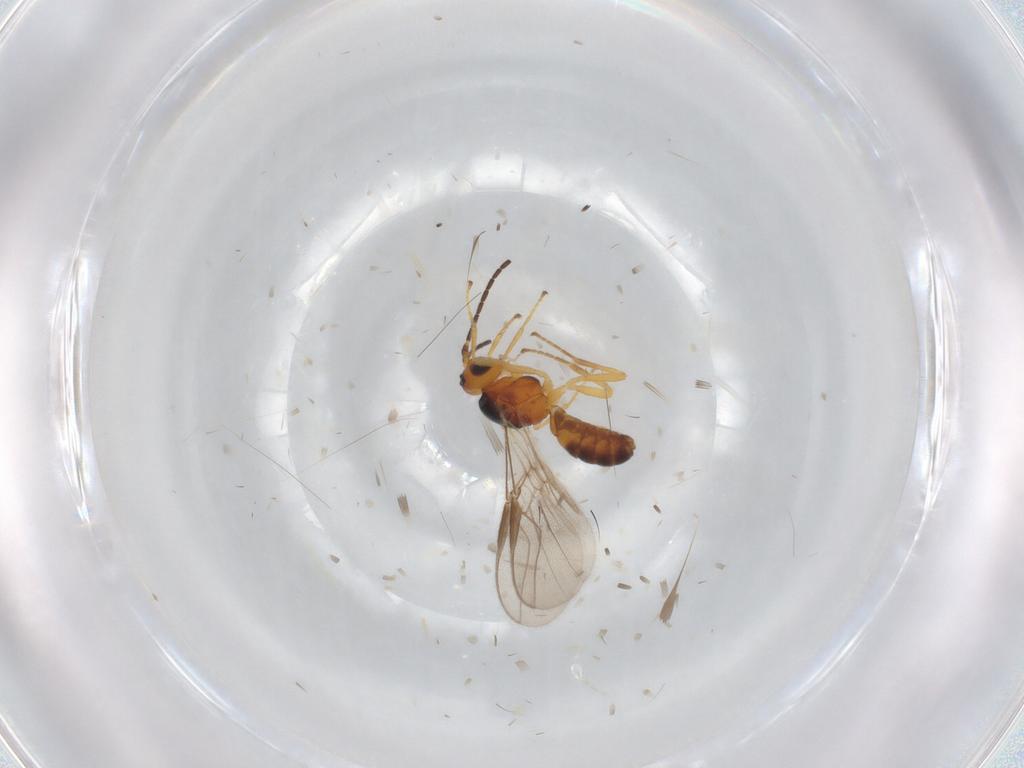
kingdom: Animalia
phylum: Arthropoda
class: Insecta
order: Hymenoptera
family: Braconidae
